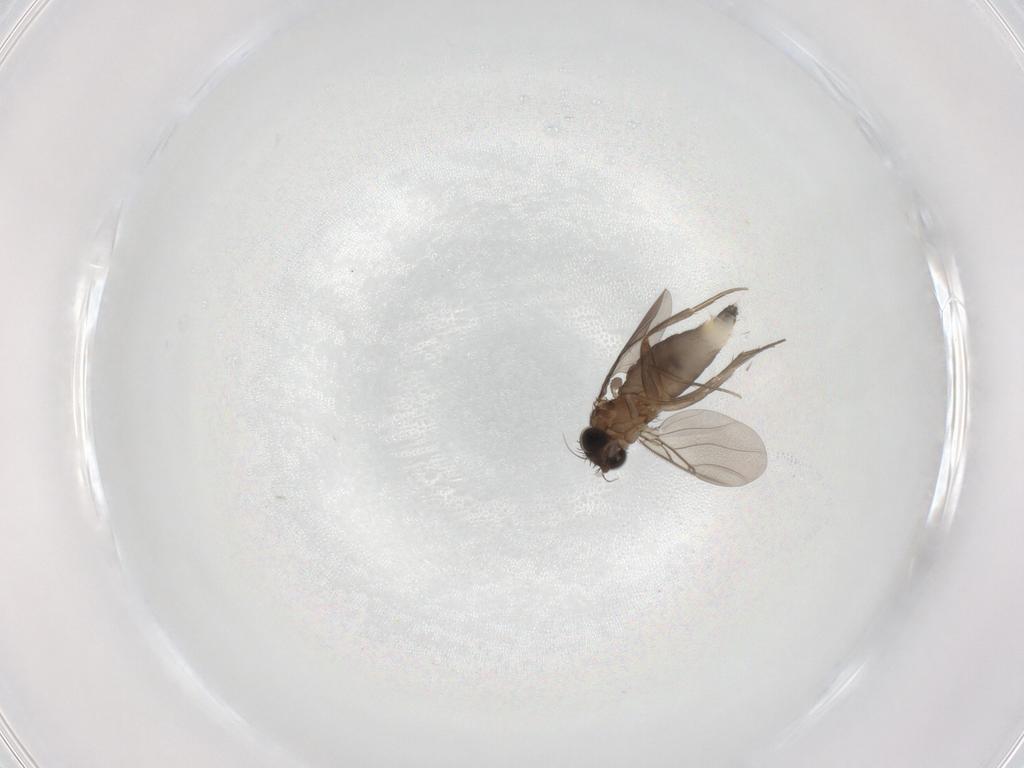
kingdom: Animalia
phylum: Arthropoda
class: Insecta
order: Diptera
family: Phoridae
